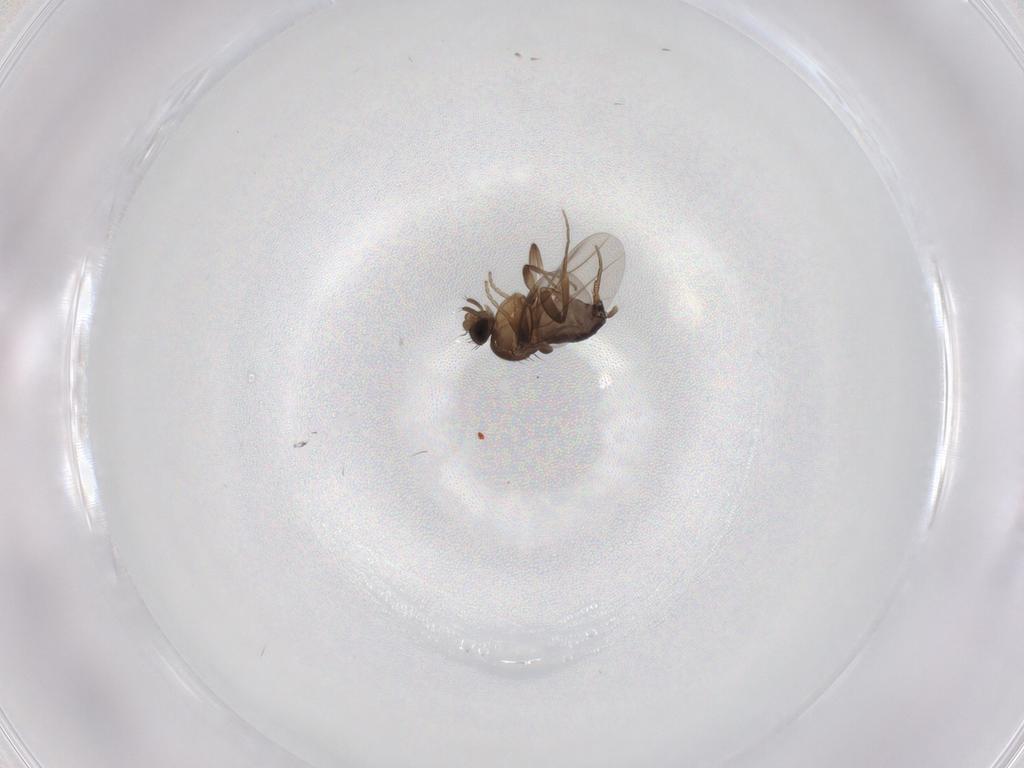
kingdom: Animalia
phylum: Arthropoda
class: Insecta
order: Diptera
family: Phoridae
